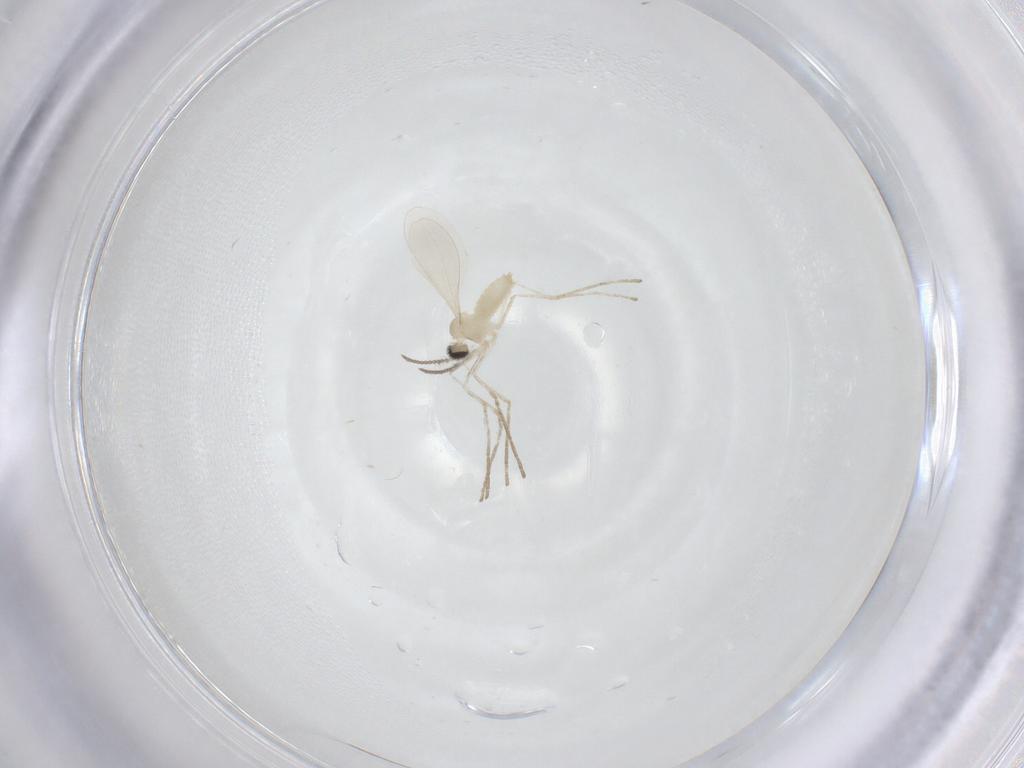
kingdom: Animalia
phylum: Arthropoda
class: Insecta
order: Diptera
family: Cecidomyiidae
